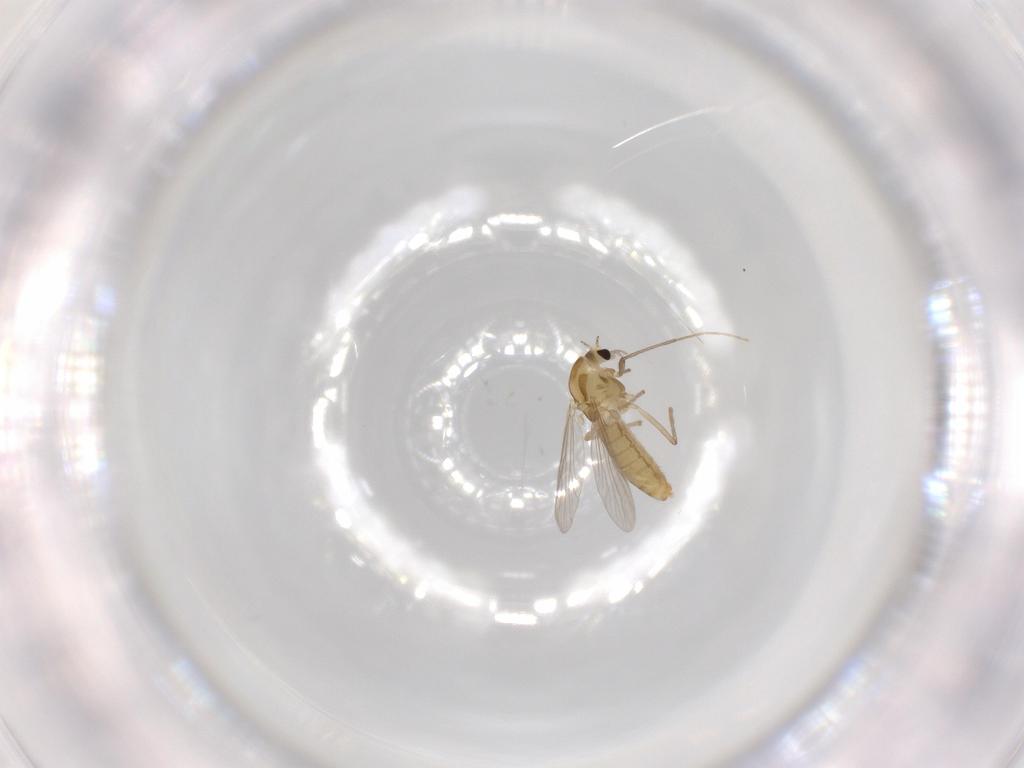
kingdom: Animalia
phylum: Arthropoda
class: Insecta
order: Diptera
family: Chironomidae
